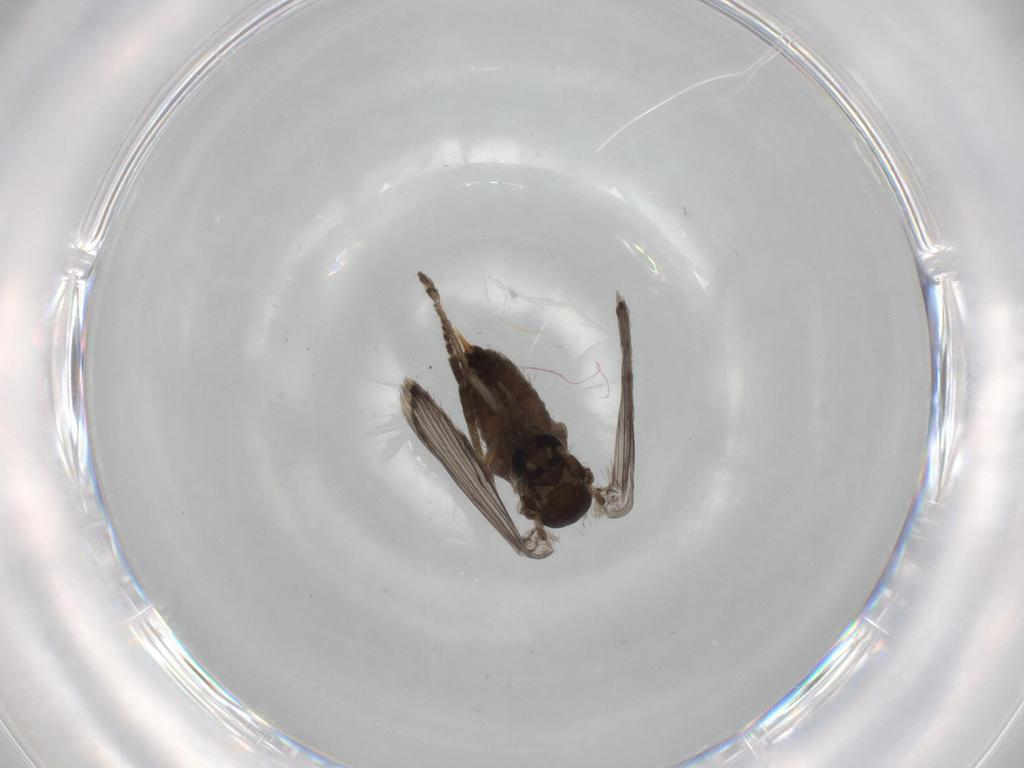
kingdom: Animalia
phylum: Arthropoda
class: Insecta
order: Diptera
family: Psychodidae
